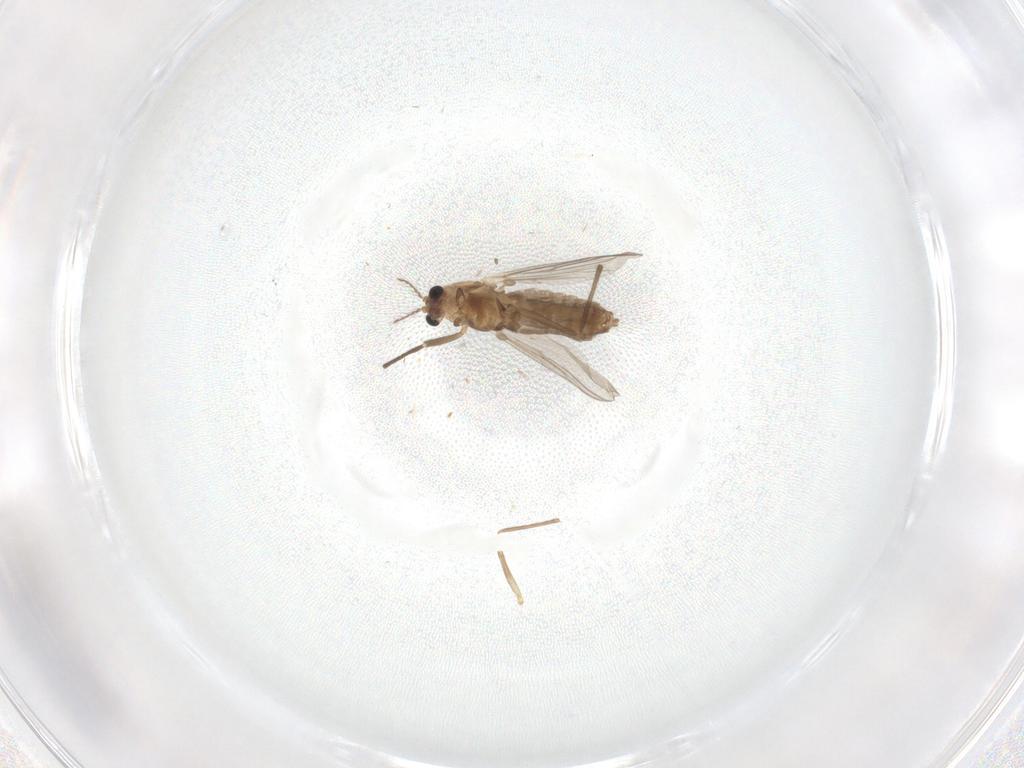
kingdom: Animalia
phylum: Arthropoda
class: Insecta
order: Diptera
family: Chironomidae
